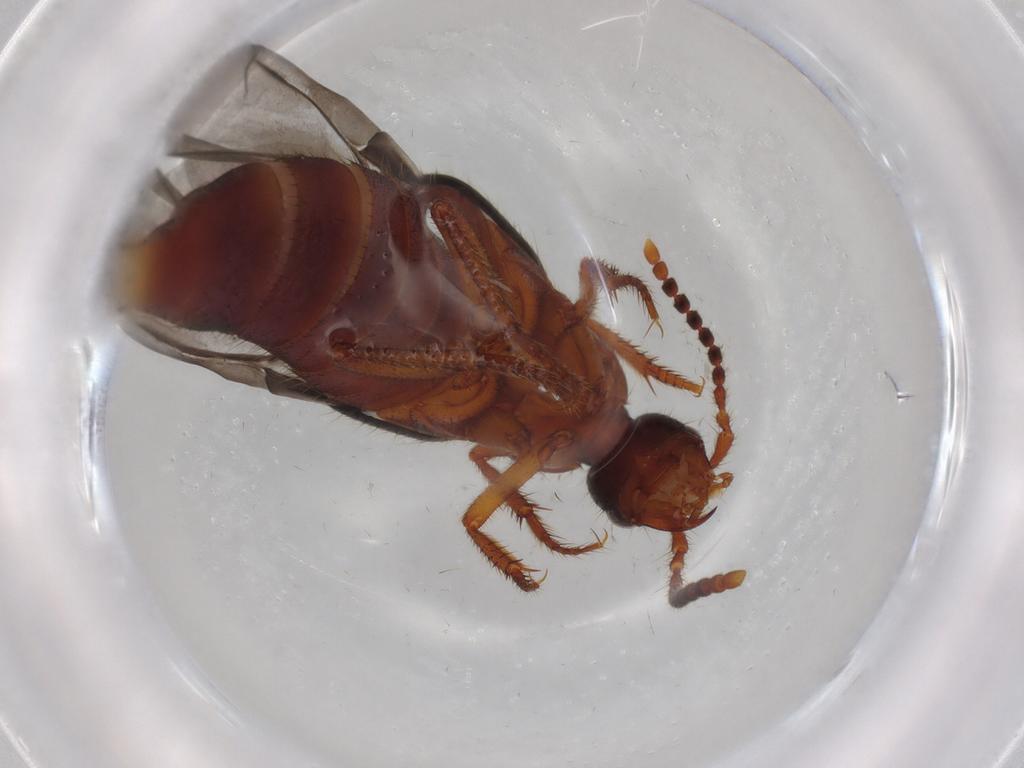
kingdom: Animalia
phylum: Arthropoda
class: Insecta
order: Coleoptera
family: Staphylinidae
